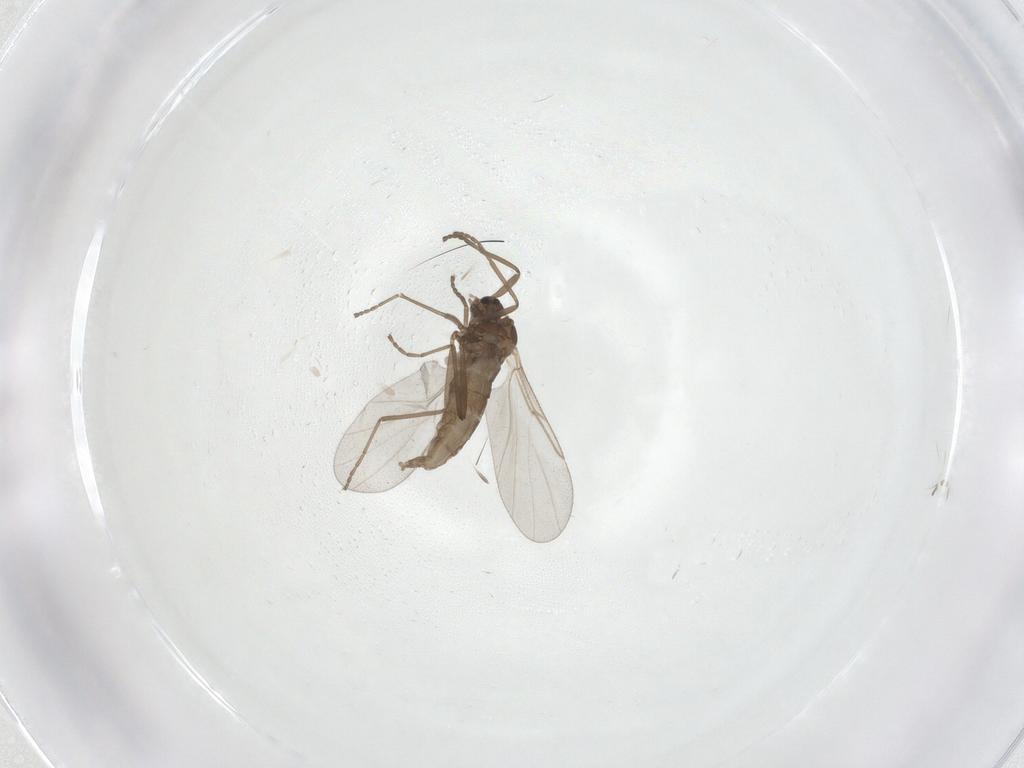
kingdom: Animalia
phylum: Arthropoda
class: Insecta
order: Diptera
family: Cecidomyiidae
